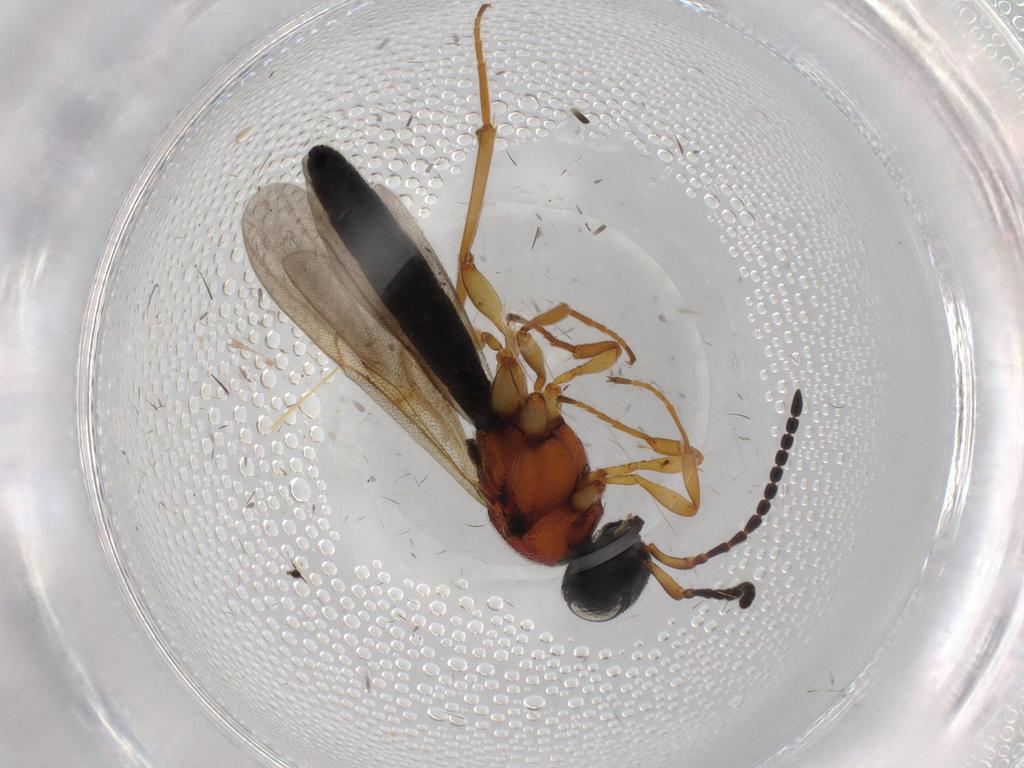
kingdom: Animalia
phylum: Arthropoda
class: Insecta
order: Hymenoptera
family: Scelionidae
